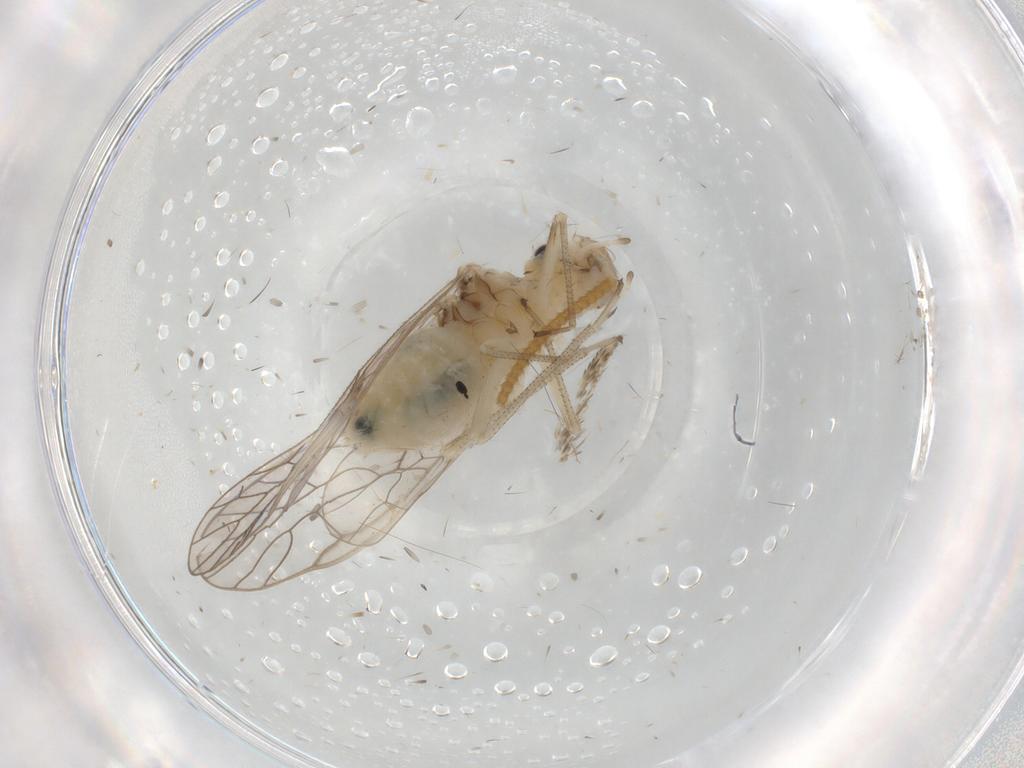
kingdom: Animalia
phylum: Arthropoda
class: Insecta
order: Psocodea
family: Stenopsocidae
